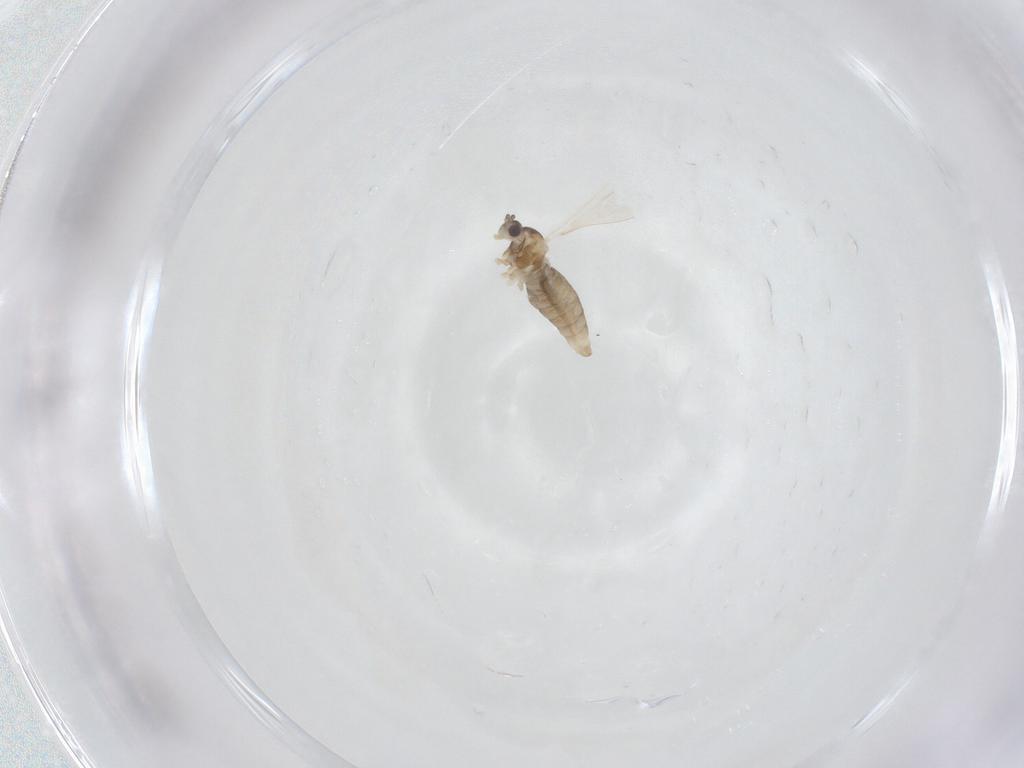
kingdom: Animalia
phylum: Arthropoda
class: Insecta
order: Diptera
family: Cecidomyiidae
